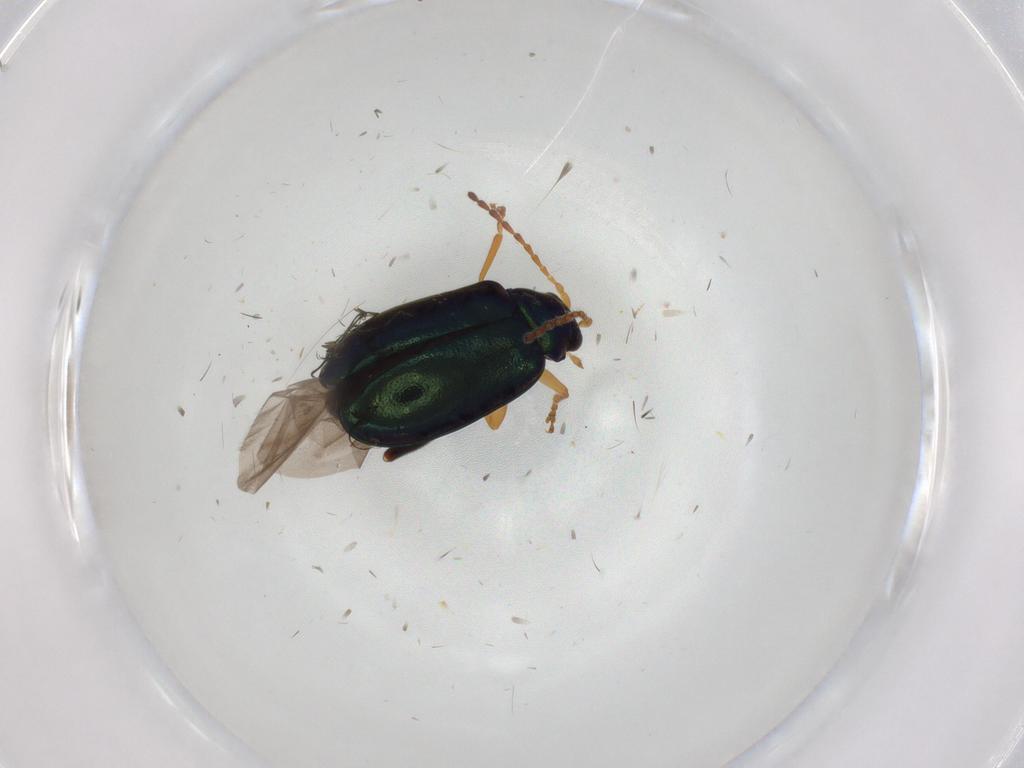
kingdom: Animalia
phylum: Arthropoda
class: Insecta
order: Coleoptera
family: Chrysomelidae
